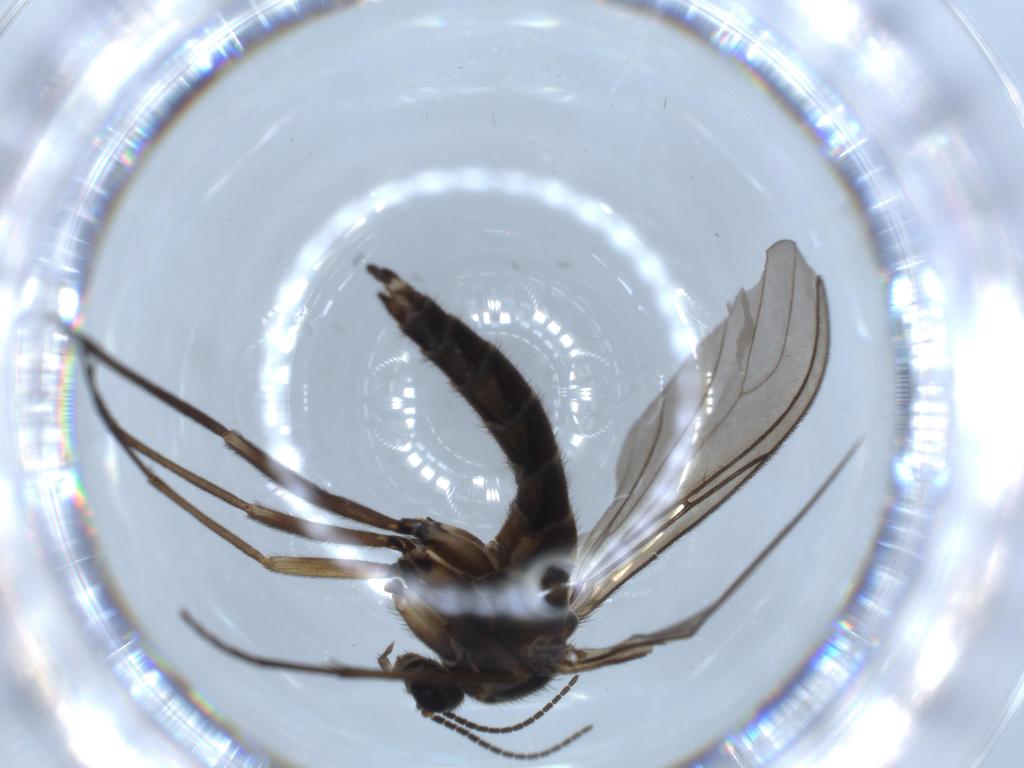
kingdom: Animalia
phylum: Arthropoda
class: Insecta
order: Diptera
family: Sciaridae
